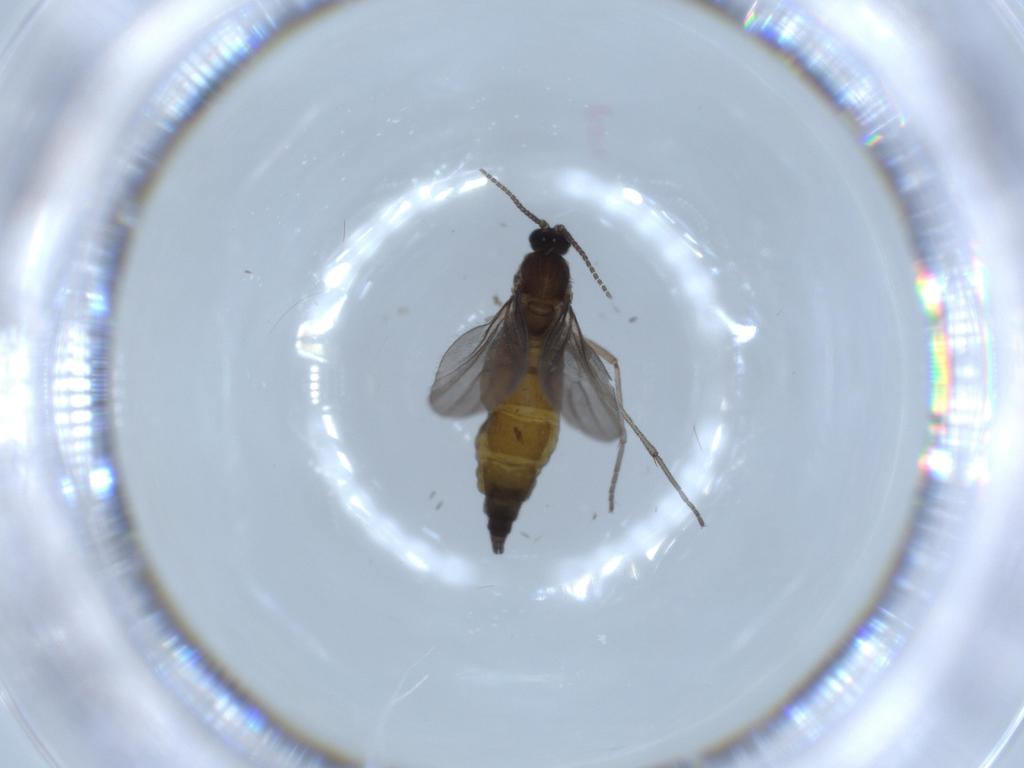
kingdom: Animalia
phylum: Arthropoda
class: Insecta
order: Diptera
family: Sciaridae
